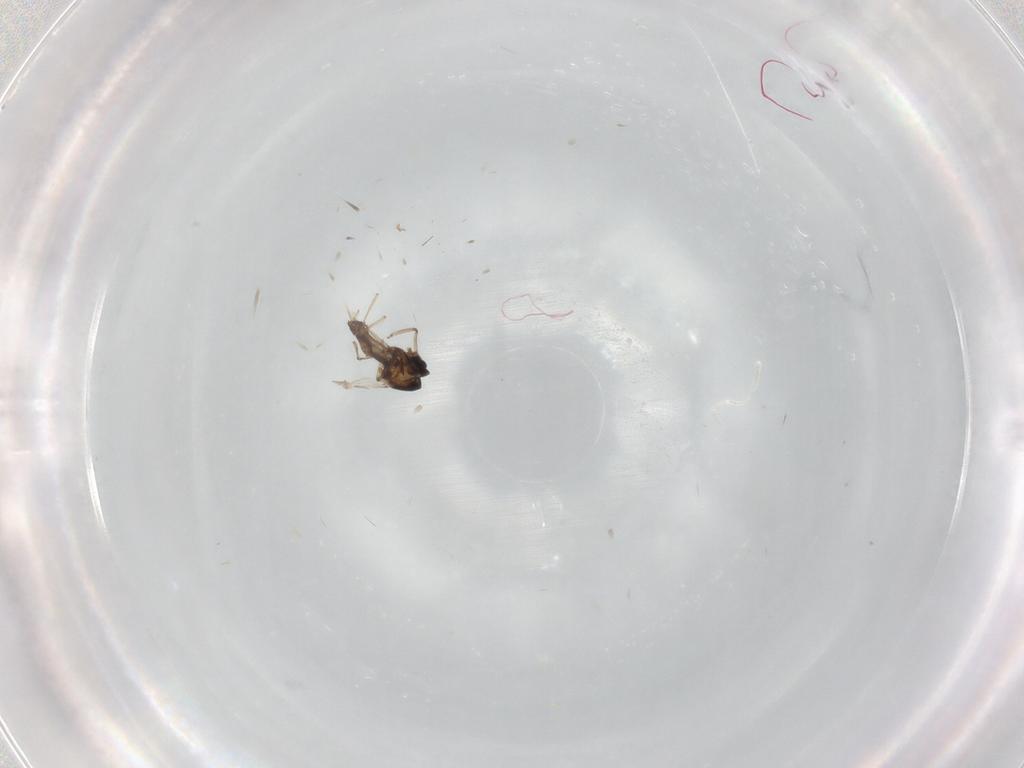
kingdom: Animalia
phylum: Arthropoda
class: Insecta
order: Diptera
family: Ceratopogonidae
